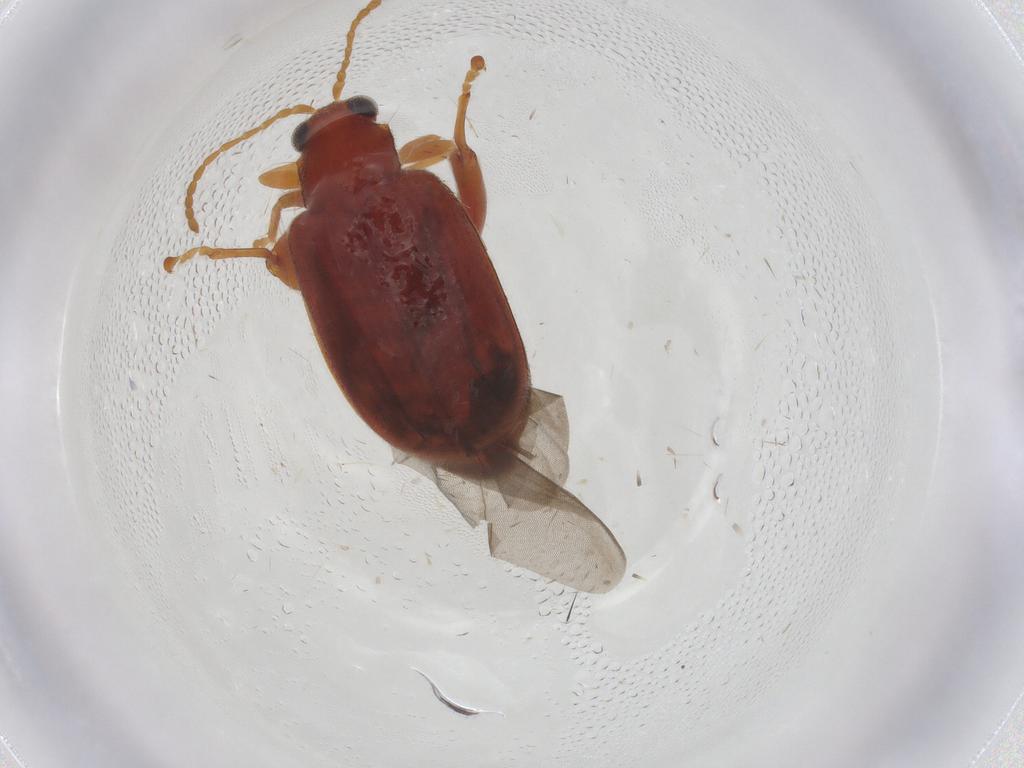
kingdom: Animalia
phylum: Arthropoda
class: Insecta
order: Coleoptera
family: Chrysomelidae
